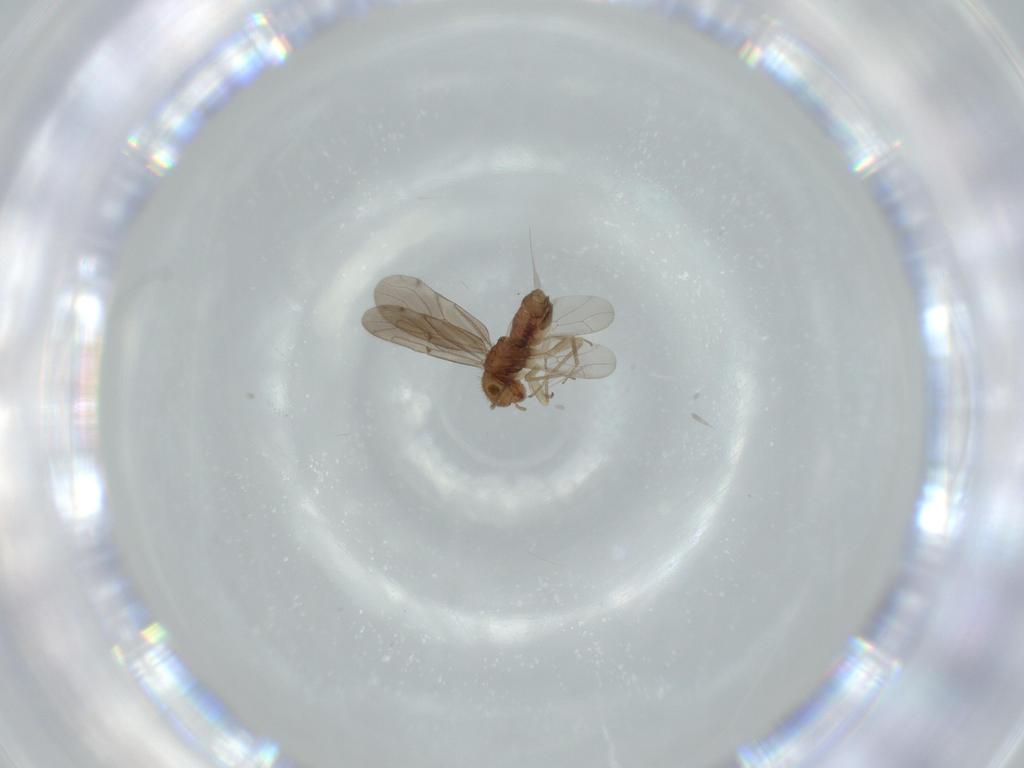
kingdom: Animalia
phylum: Arthropoda
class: Insecta
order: Psocodea
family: Ectopsocidae
